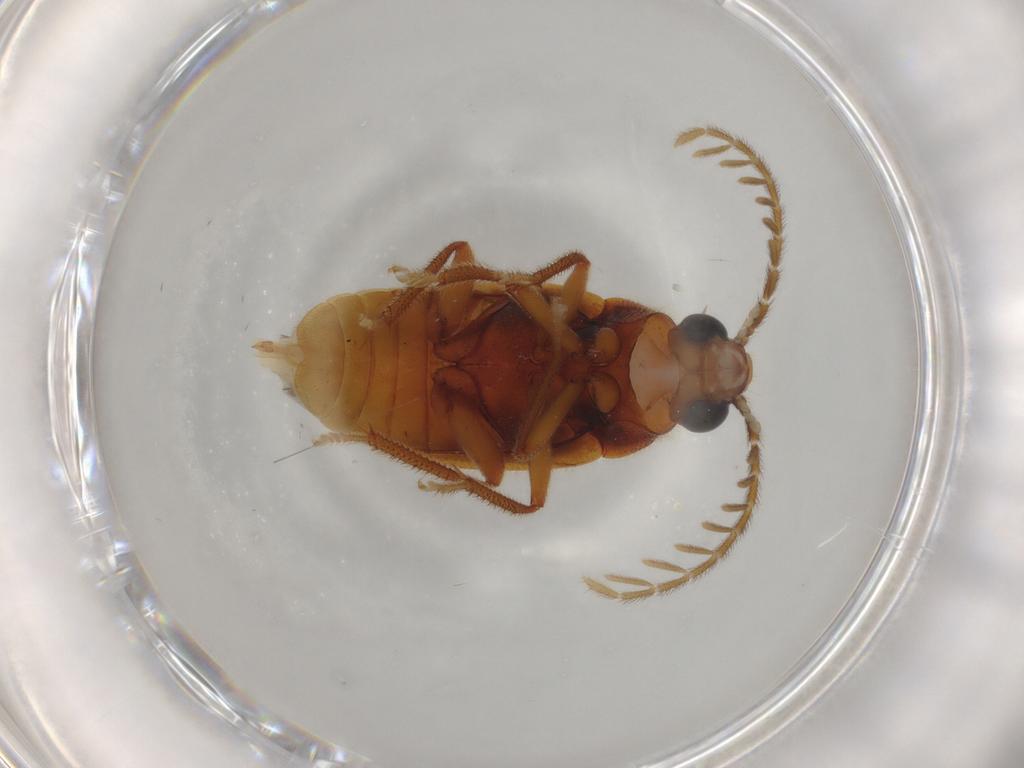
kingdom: Animalia
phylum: Arthropoda
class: Insecta
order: Coleoptera
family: Ptilodactylidae
